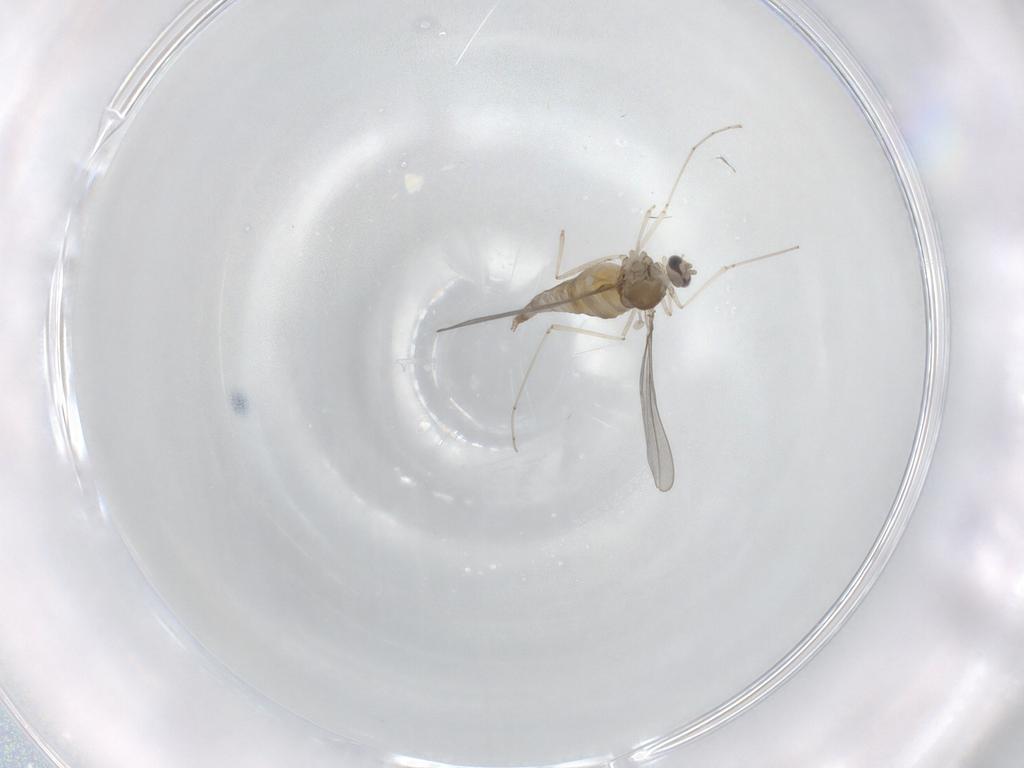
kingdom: Animalia
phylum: Arthropoda
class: Insecta
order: Diptera
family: Cecidomyiidae
